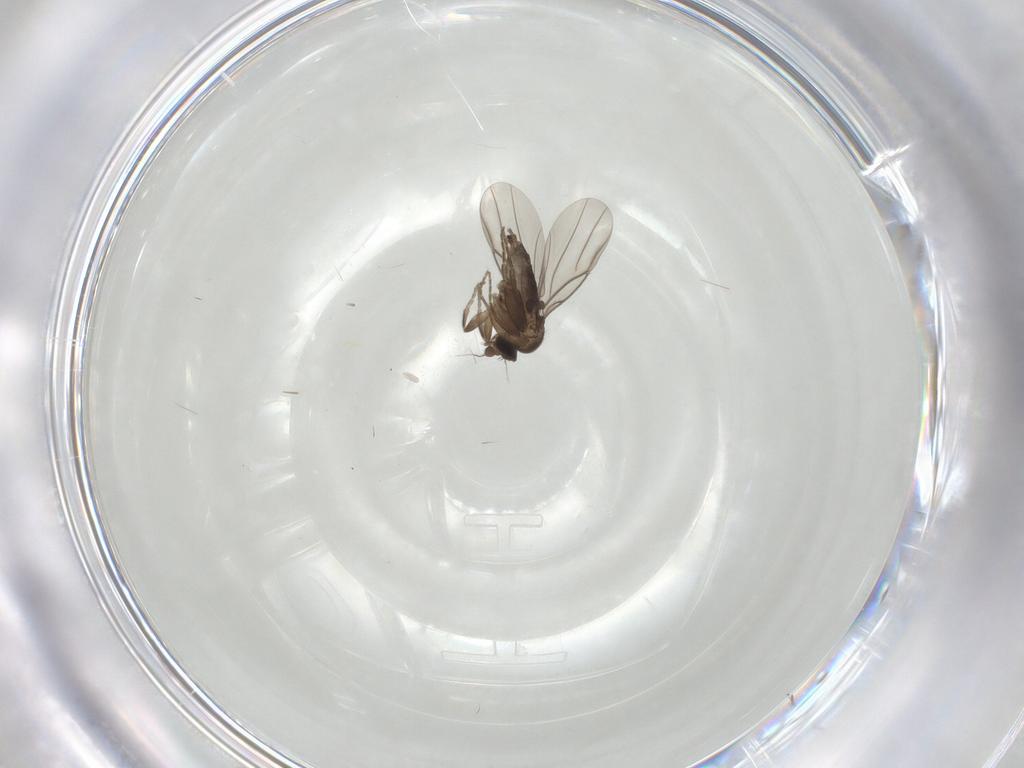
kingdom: Animalia
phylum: Arthropoda
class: Insecta
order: Diptera
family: Phoridae
